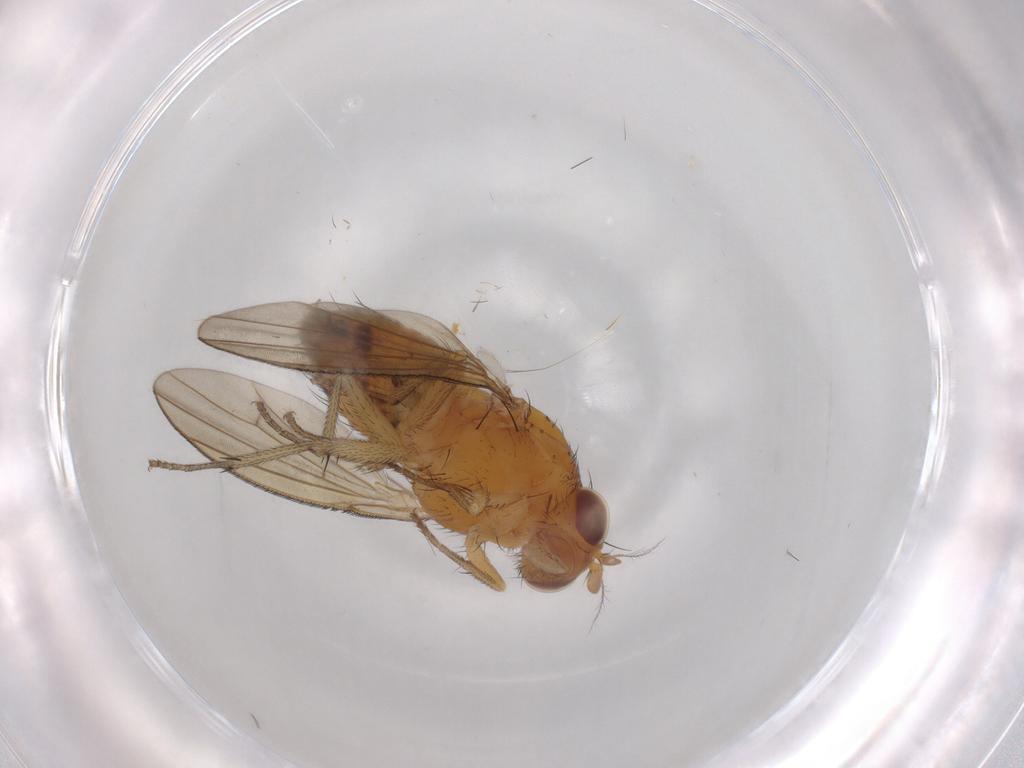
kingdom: Animalia
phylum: Arthropoda
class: Insecta
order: Diptera
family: Lauxaniidae
